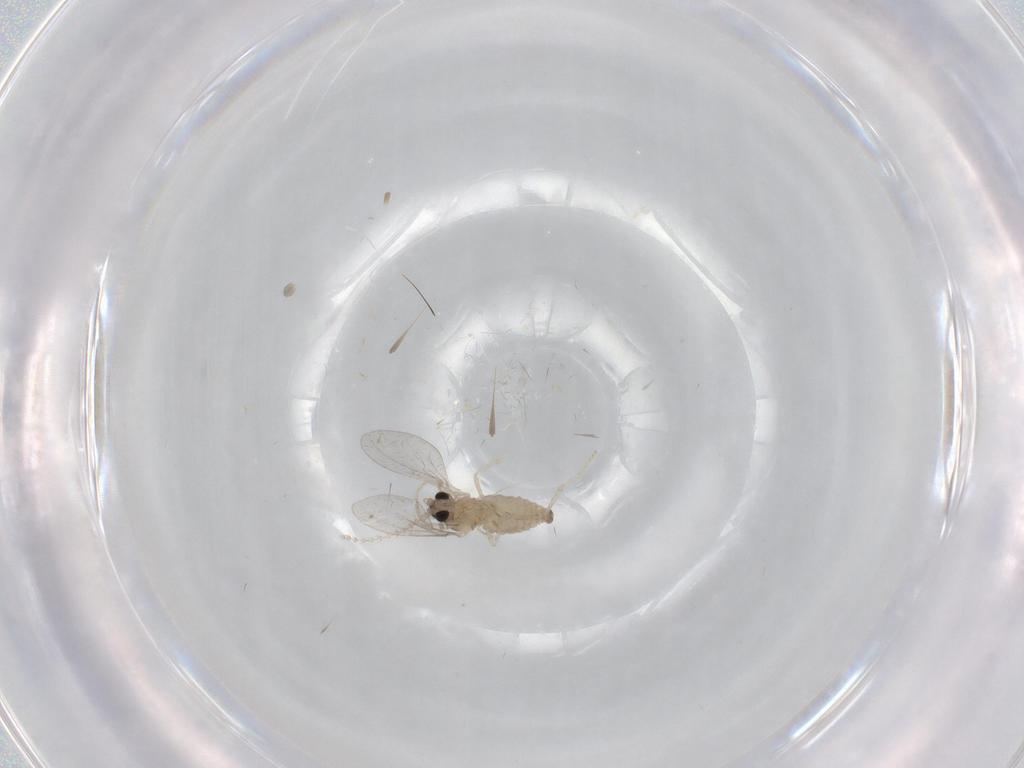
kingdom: Animalia
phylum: Arthropoda
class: Insecta
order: Diptera
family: Cecidomyiidae
